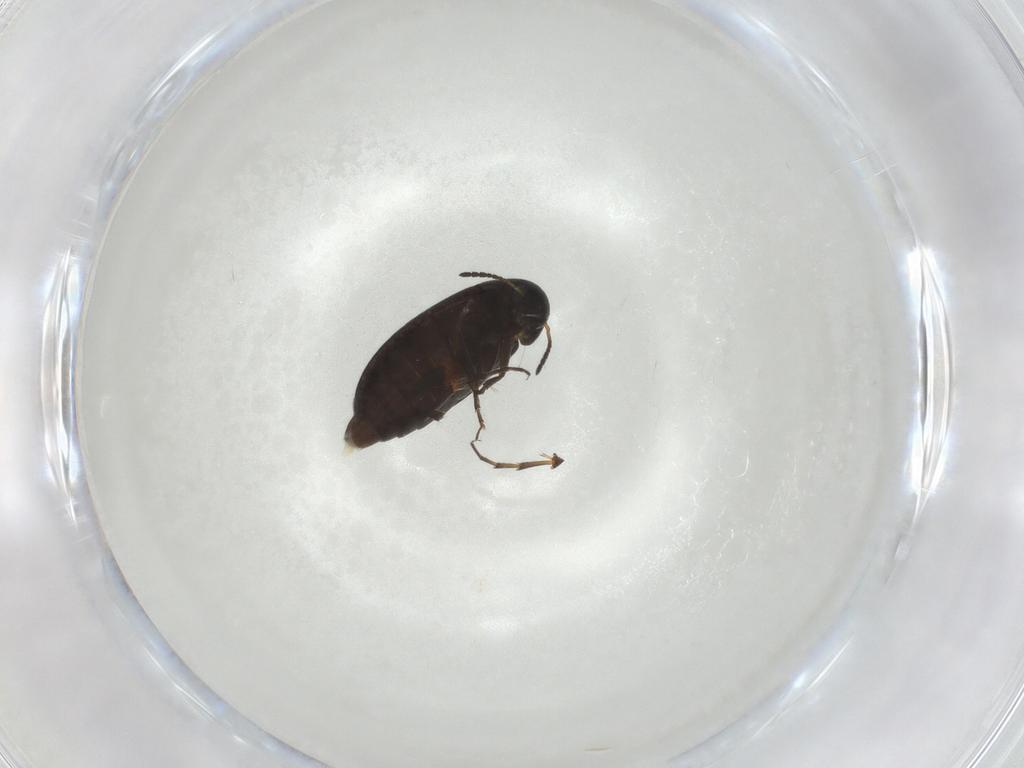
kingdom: Animalia
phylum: Arthropoda
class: Insecta
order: Coleoptera
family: Scraptiidae
